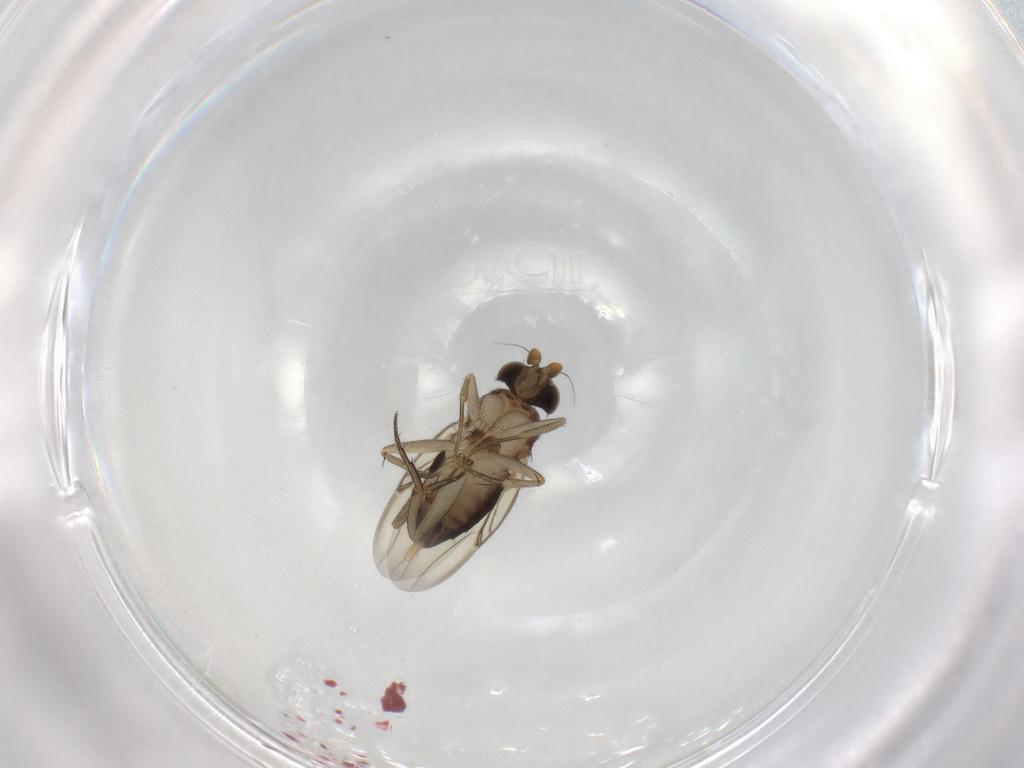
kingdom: Animalia
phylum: Arthropoda
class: Insecta
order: Diptera
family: Phoridae
